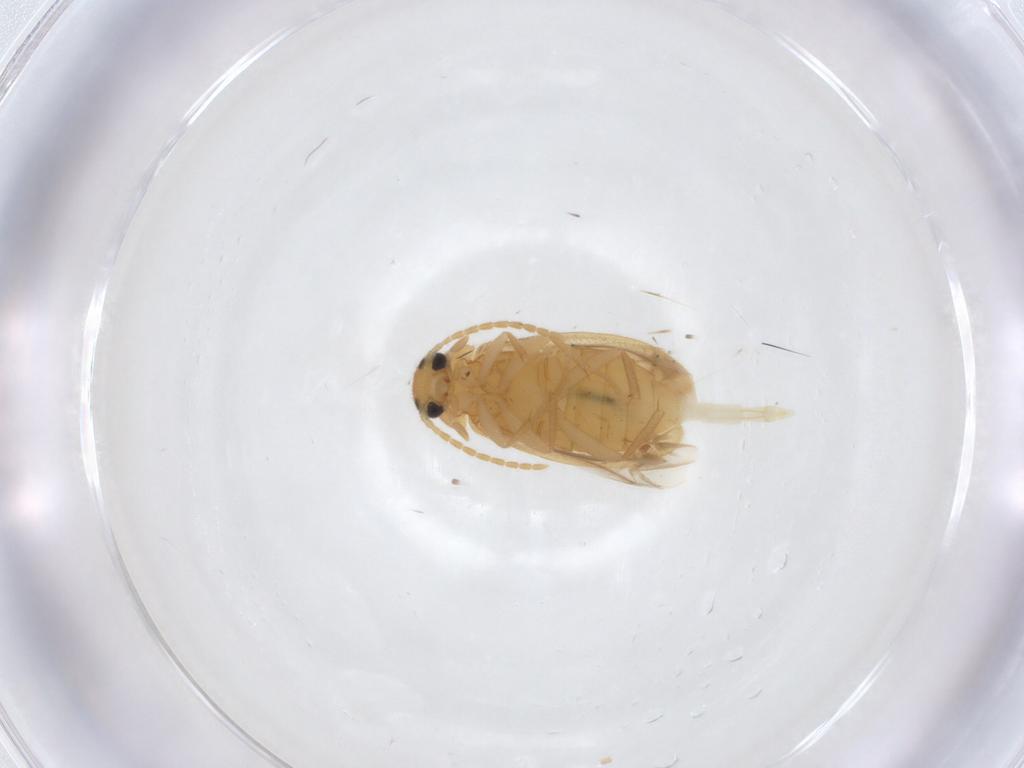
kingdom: Animalia
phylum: Arthropoda
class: Insecta
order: Coleoptera
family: Scraptiidae
